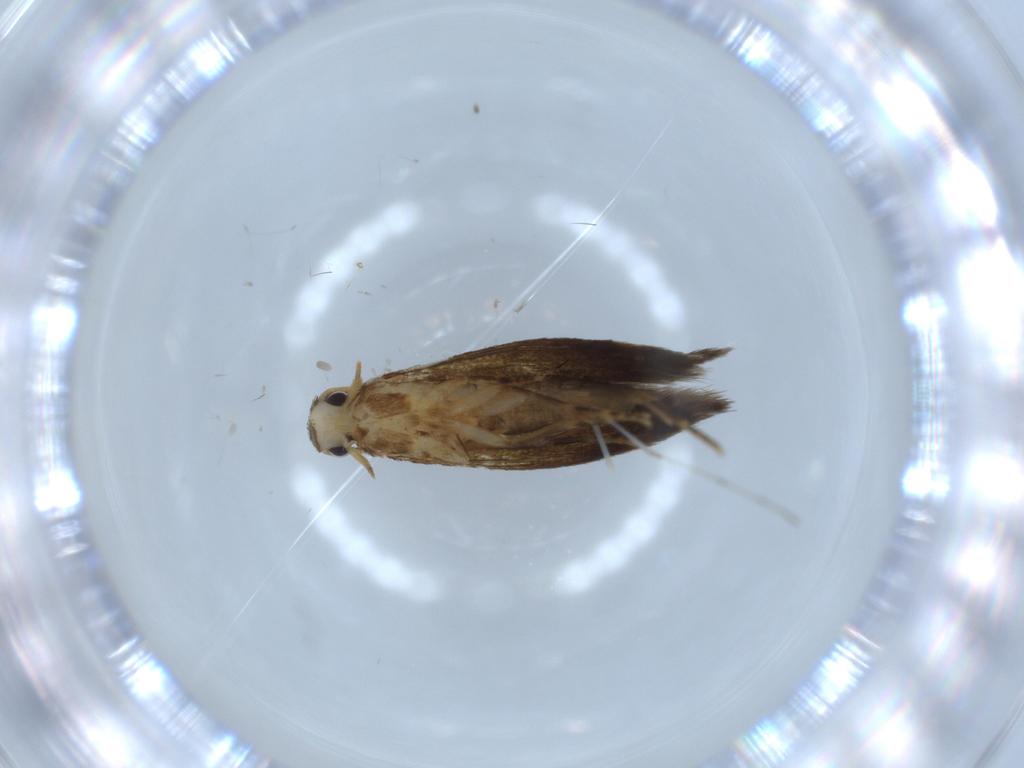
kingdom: Animalia
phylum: Arthropoda
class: Insecta
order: Lepidoptera
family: Tineidae
